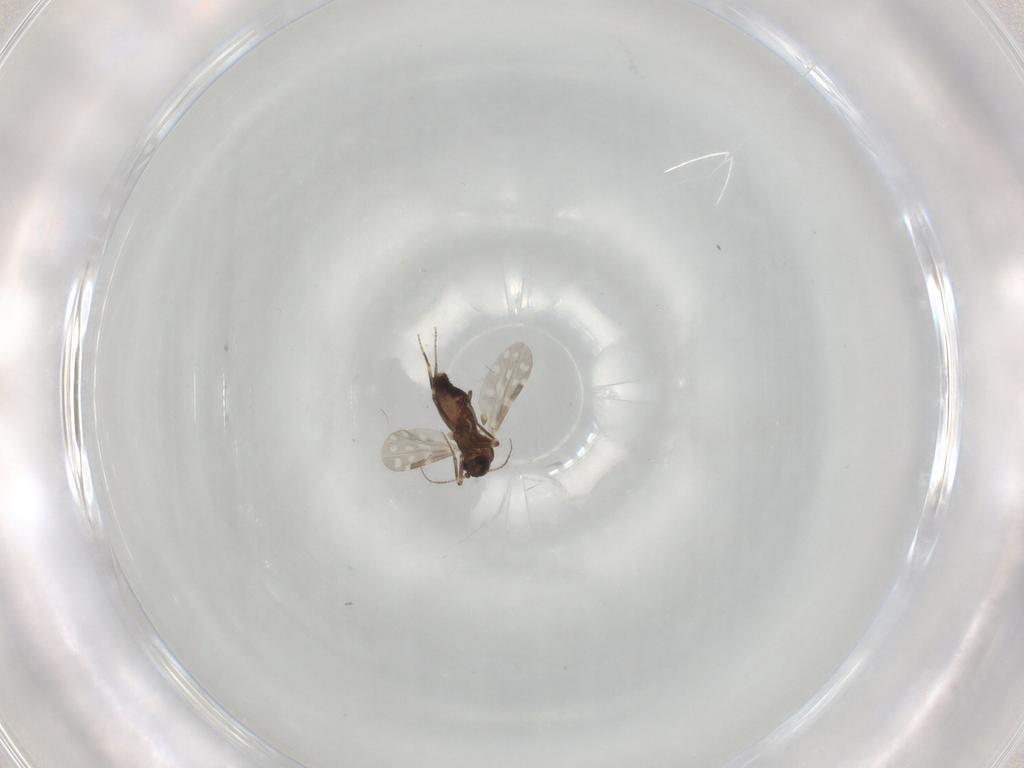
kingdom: Animalia
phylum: Arthropoda
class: Insecta
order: Diptera
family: Ceratopogonidae
